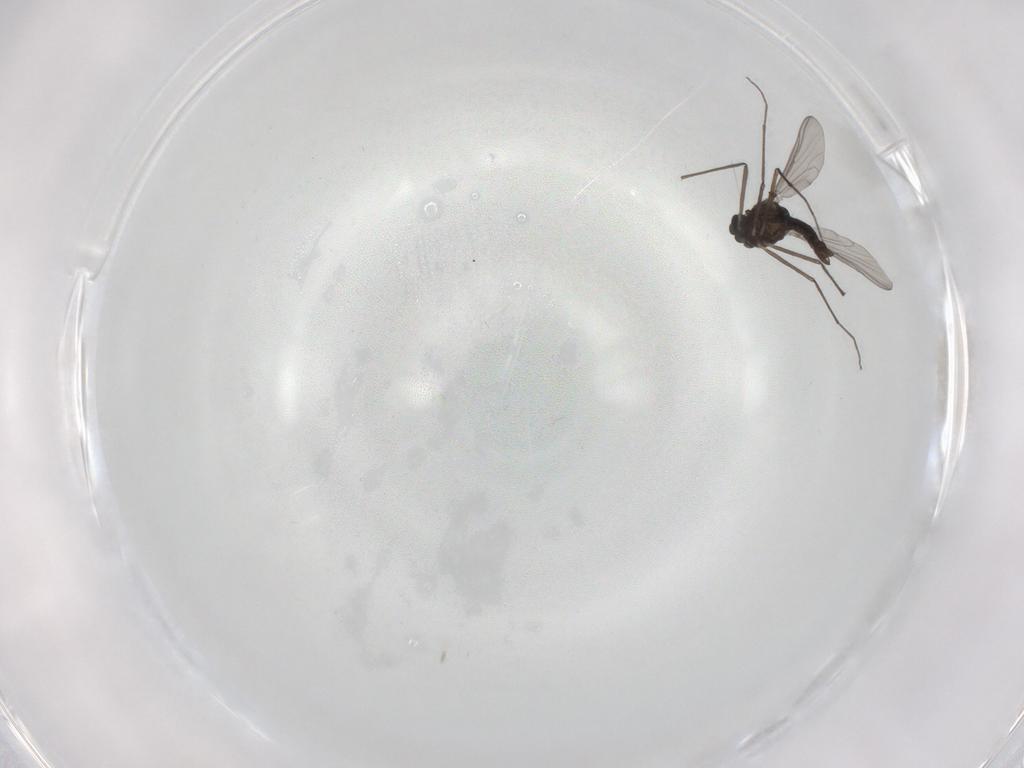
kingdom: Animalia
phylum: Arthropoda
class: Insecta
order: Diptera
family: Chironomidae
